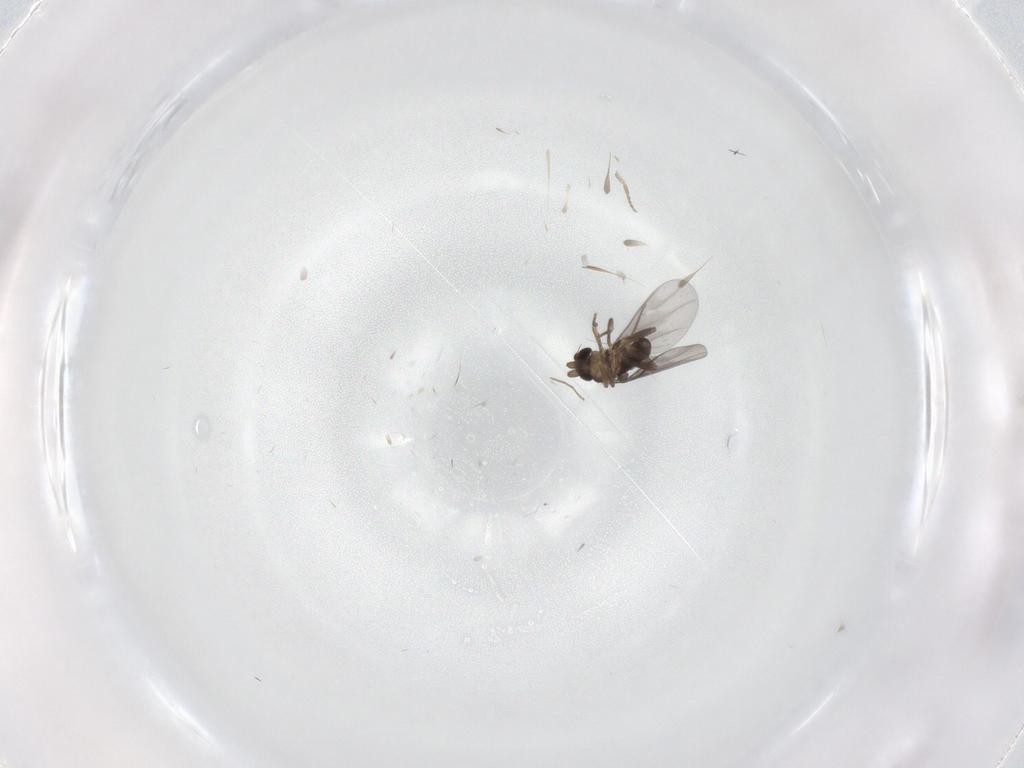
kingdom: Animalia
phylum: Arthropoda
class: Insecta
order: Diptera
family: Chironomidae
